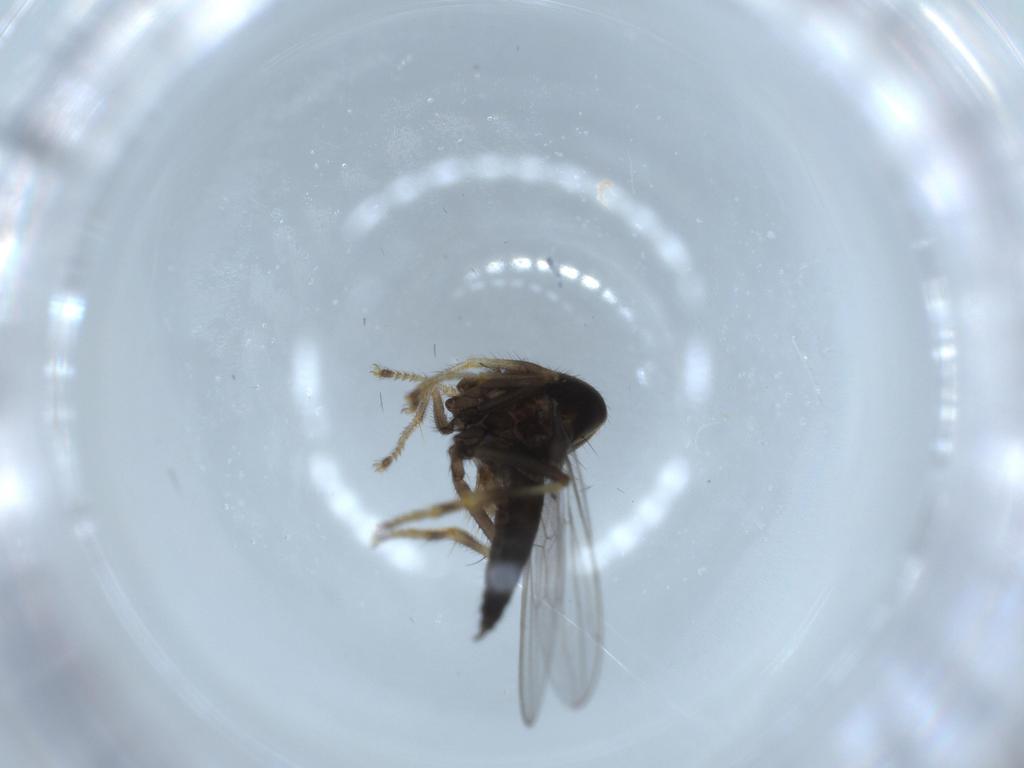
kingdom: Animalia
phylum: Arthropoda
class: Insecta
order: Diptera
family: Hybotidae
